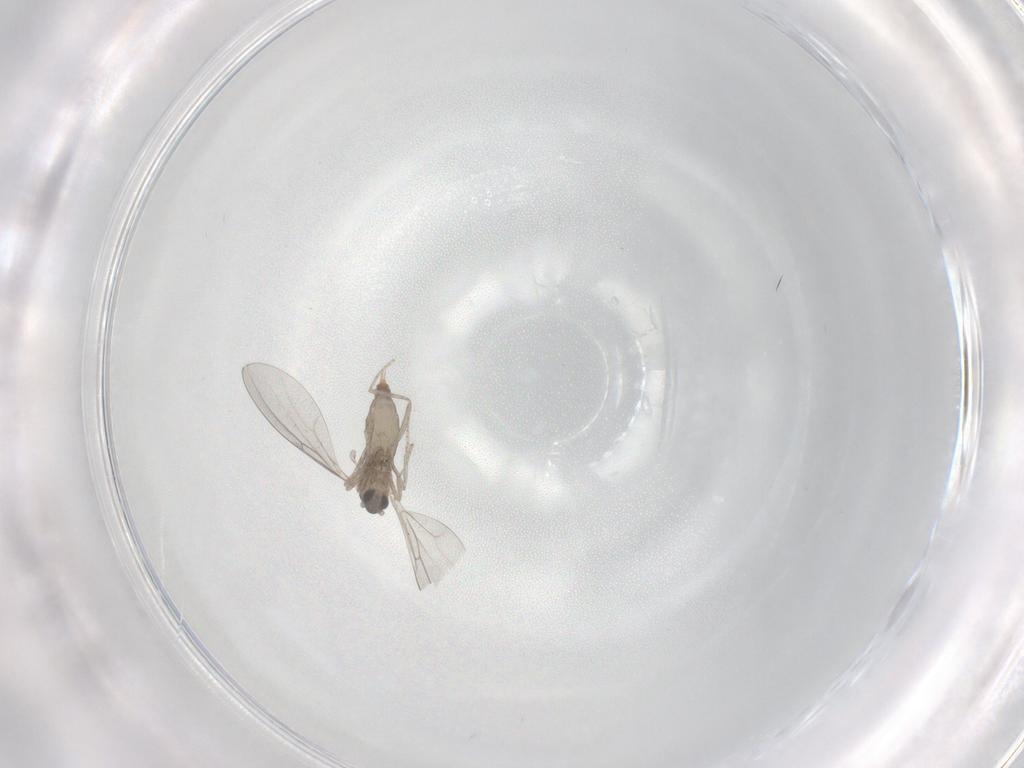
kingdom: Animalia
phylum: Arthropoda
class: Insecta
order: Diptera
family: Cecidomyiidae
